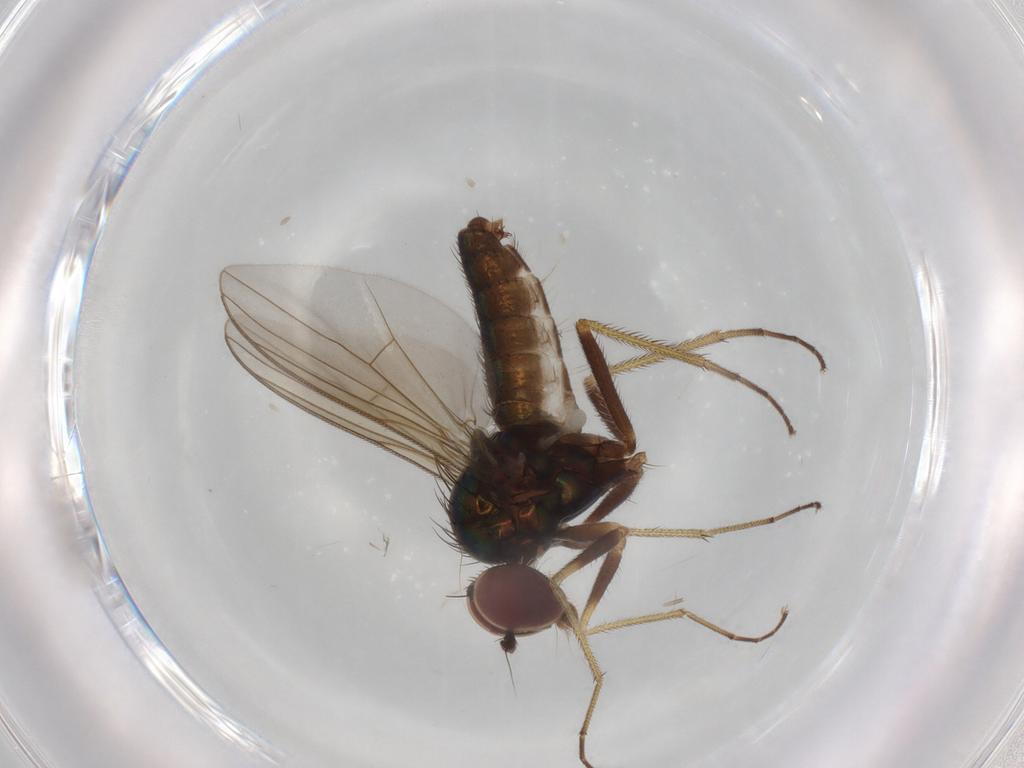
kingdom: Animalia
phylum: Arthropoda
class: Insecta
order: Diptera
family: Dolichopodidae
